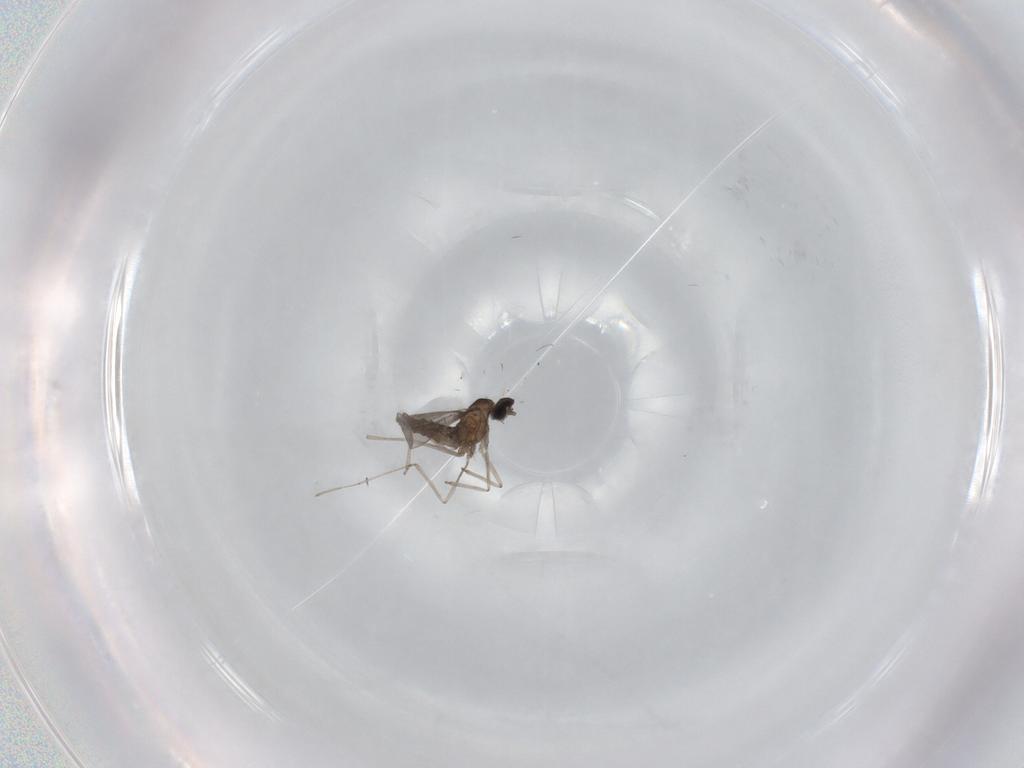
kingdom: Animalia
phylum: Arthropoda
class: Insecta
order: Diptera
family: Cecidomyiidae
